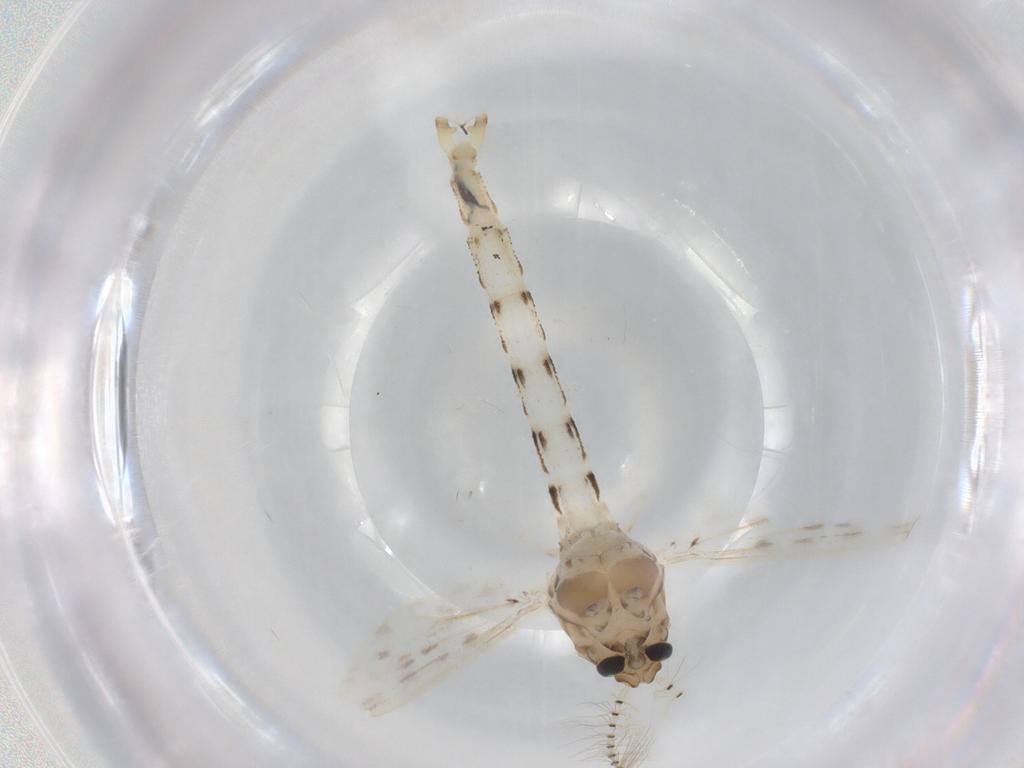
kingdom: Animalia
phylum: Arthropoda
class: Insecta
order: Diptera
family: Chaoboridae
